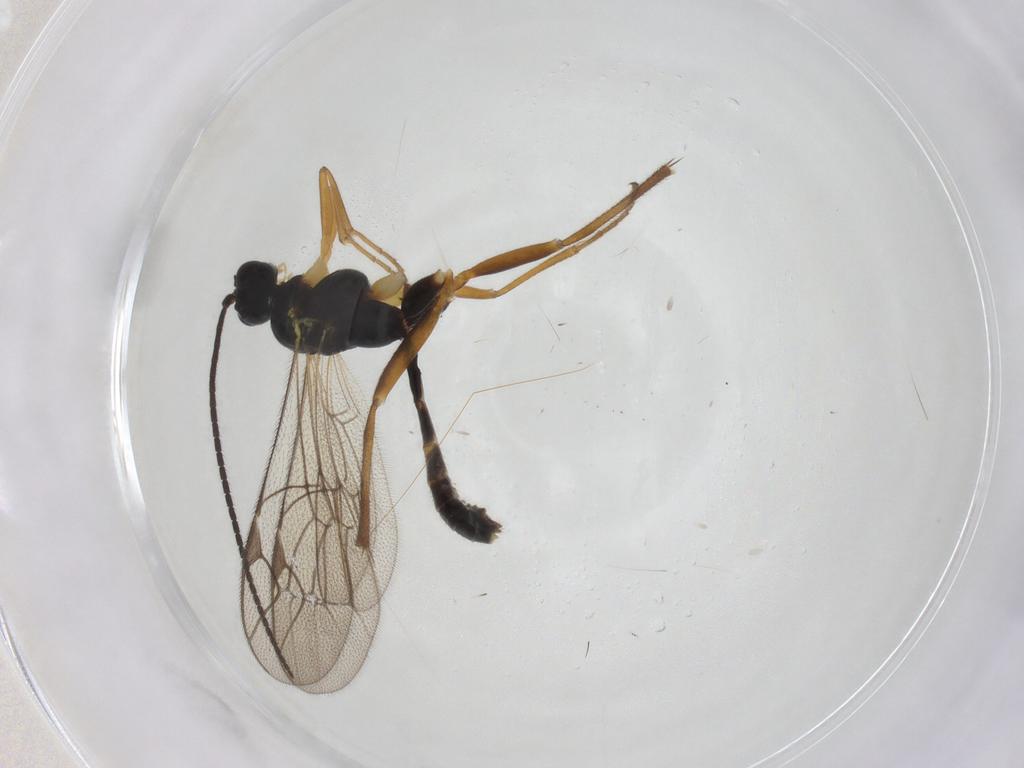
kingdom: Animalia
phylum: Arthropoda
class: Insecta
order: Hymenoptera
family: Ichneumonidae
